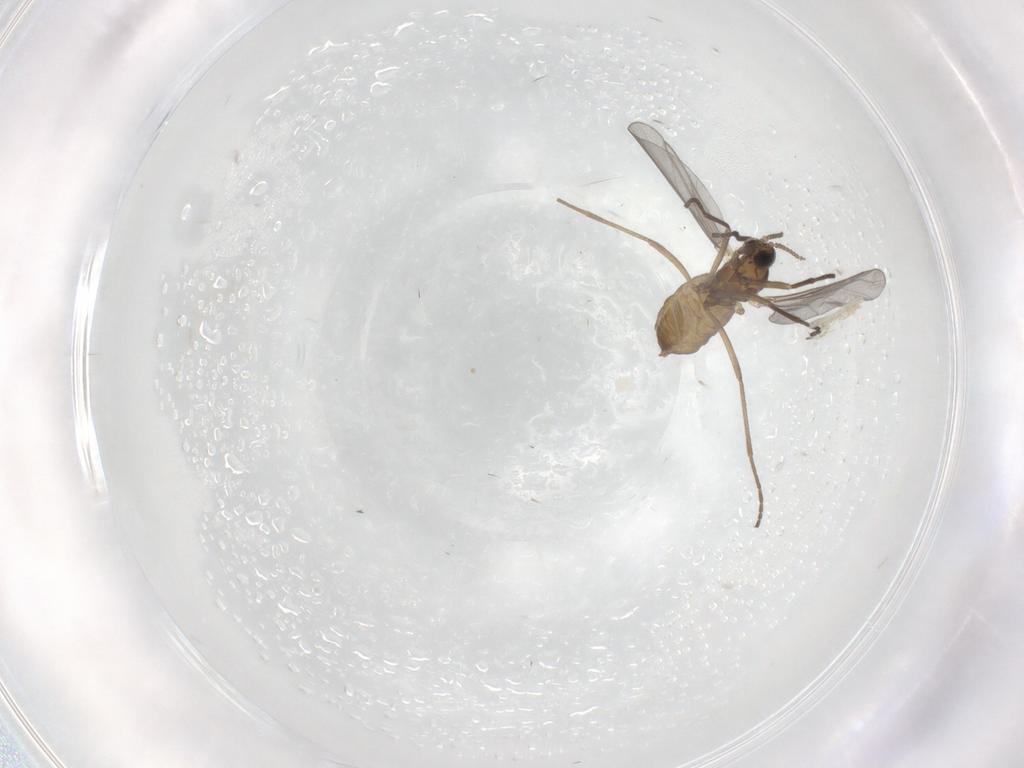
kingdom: Animalia
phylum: Arthropoda
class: Insecta
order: Diptera
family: Cecidomyiidae
